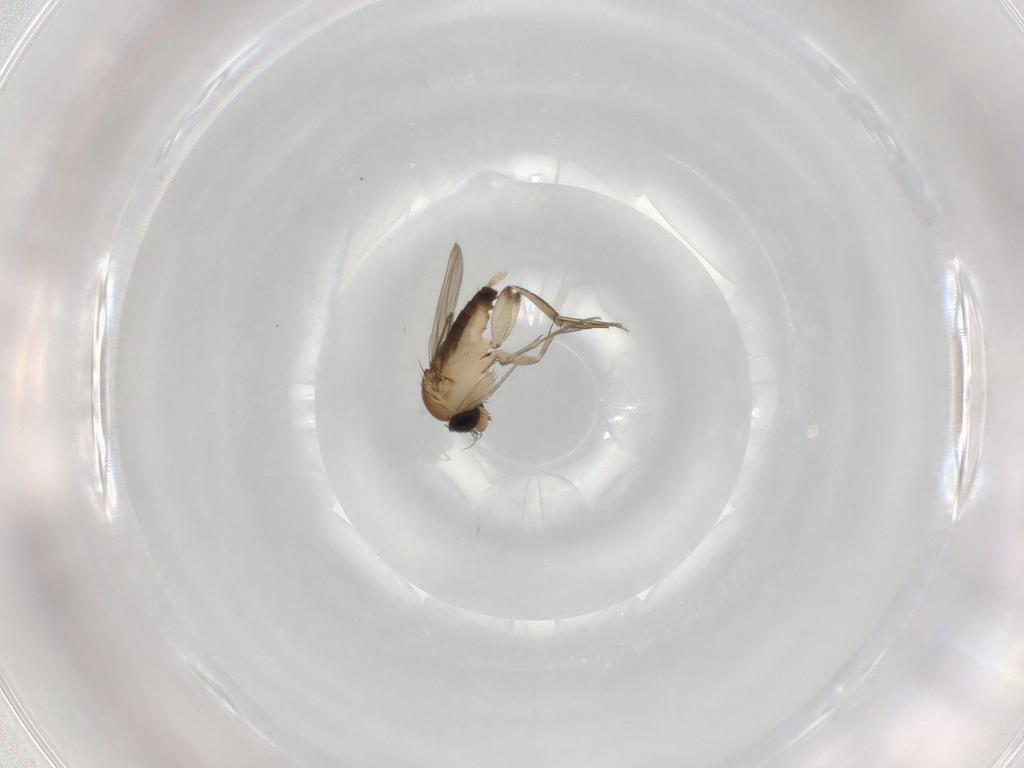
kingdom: Animalia
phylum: Arthropoda
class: Insecta
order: Diptera
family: Phoridae
